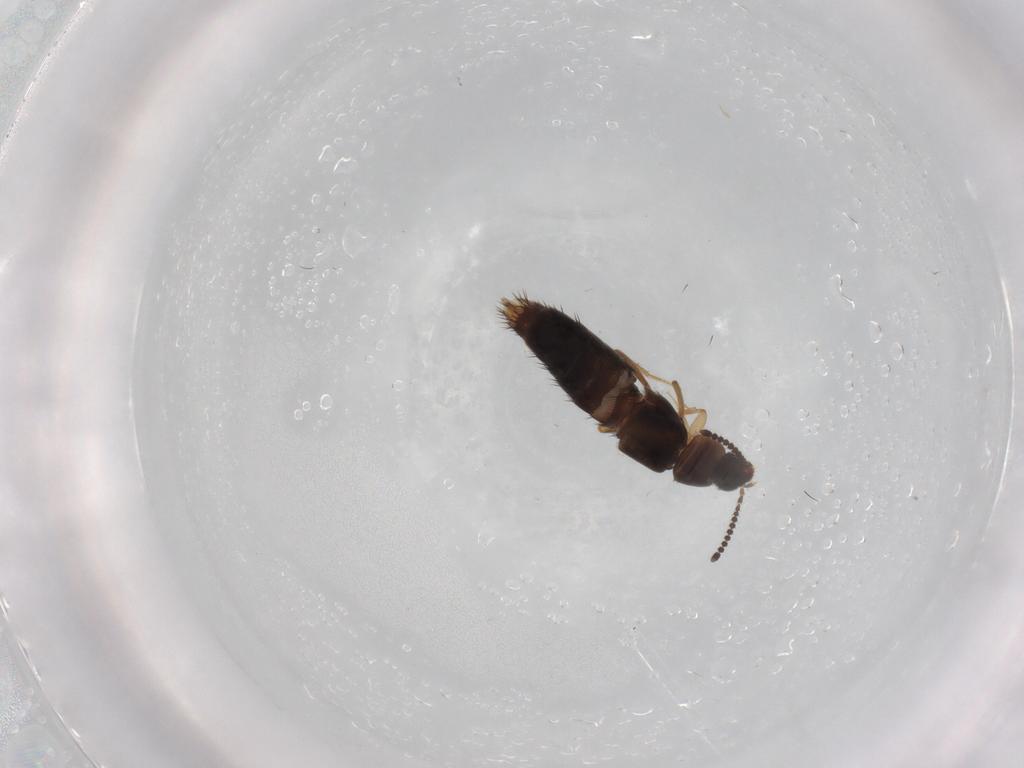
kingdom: Animalia
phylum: Arthropoda
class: Insecta
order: Coleoptera
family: Staphylinidae
